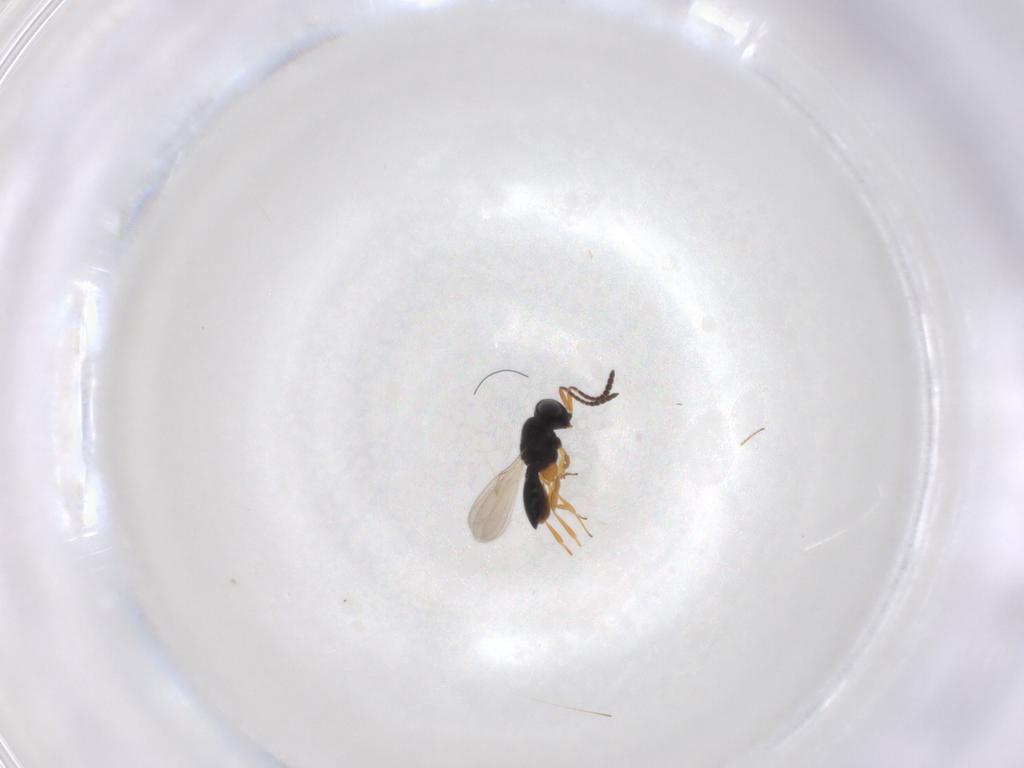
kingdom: Animalia
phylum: Arthropoda
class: Insecta
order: Hymenoptera
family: Scelionidae
